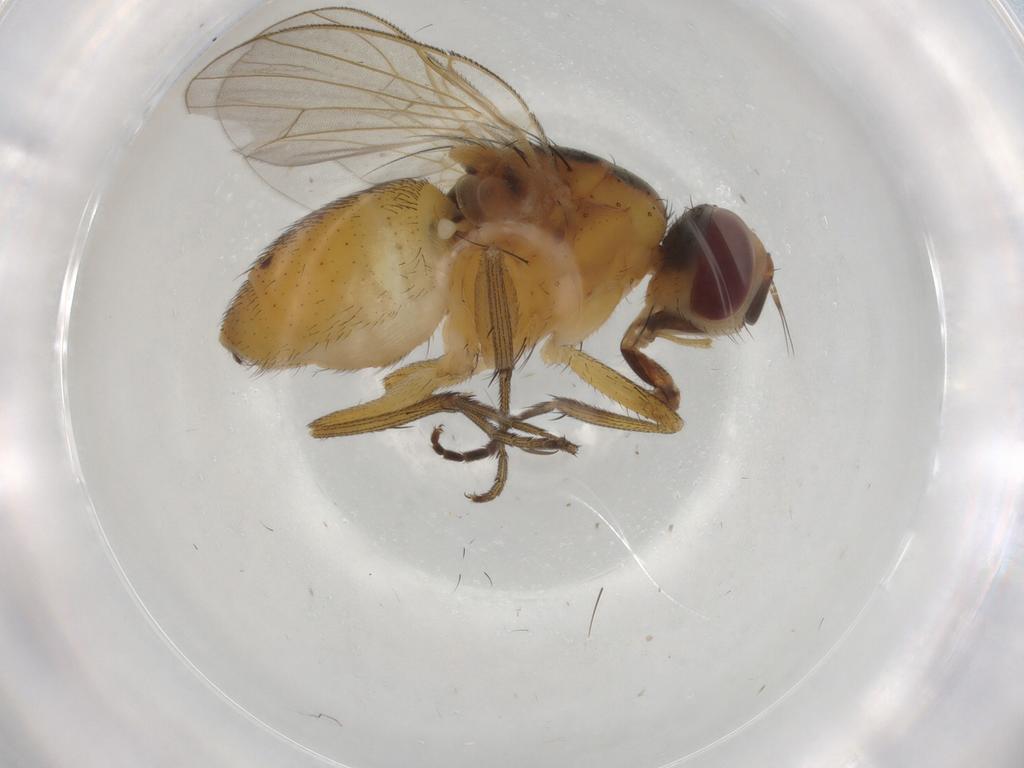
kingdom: Animalia
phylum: Arthropoda
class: Insecta
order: Diptera
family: Muscidae
